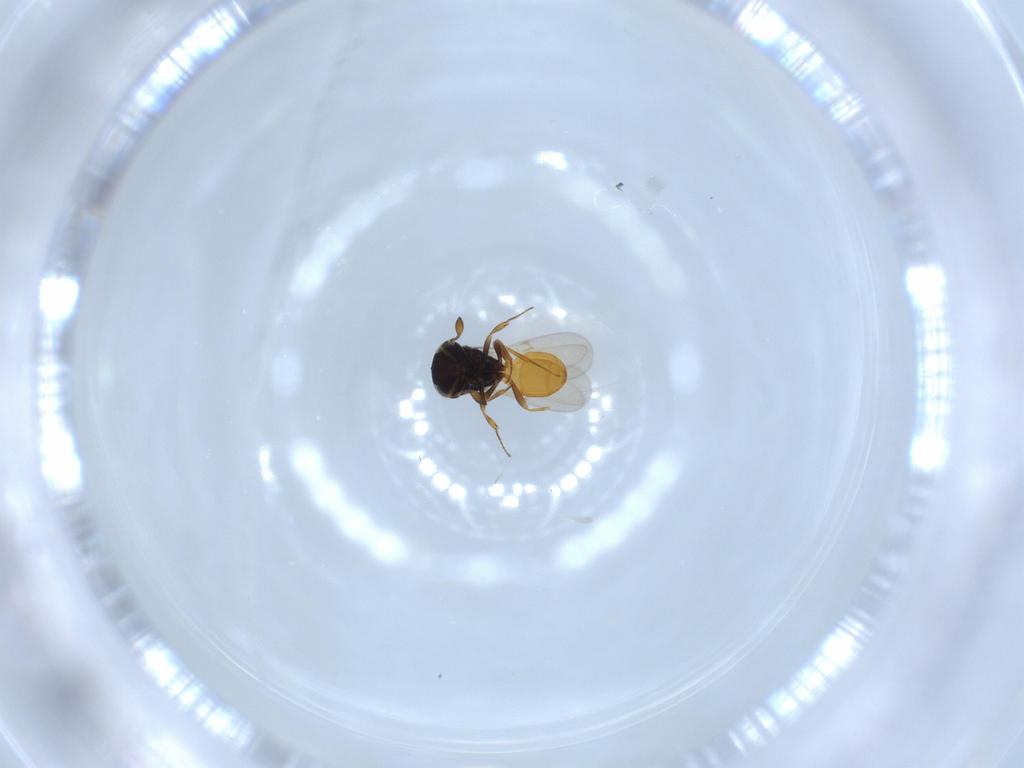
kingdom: Animalia
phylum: Arthropoda
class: Insecta
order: Hymenoptera
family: Scelionidae
